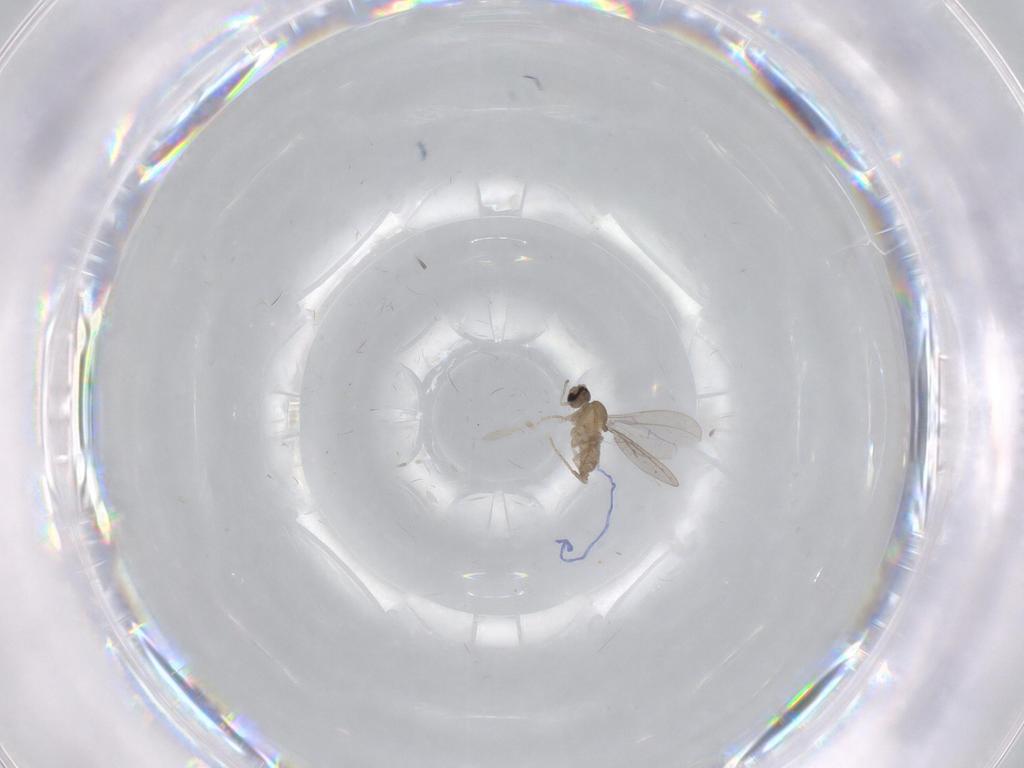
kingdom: Animalia
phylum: Arthropoda
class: Insecta
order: Diptera
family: Cecidomyiidae
